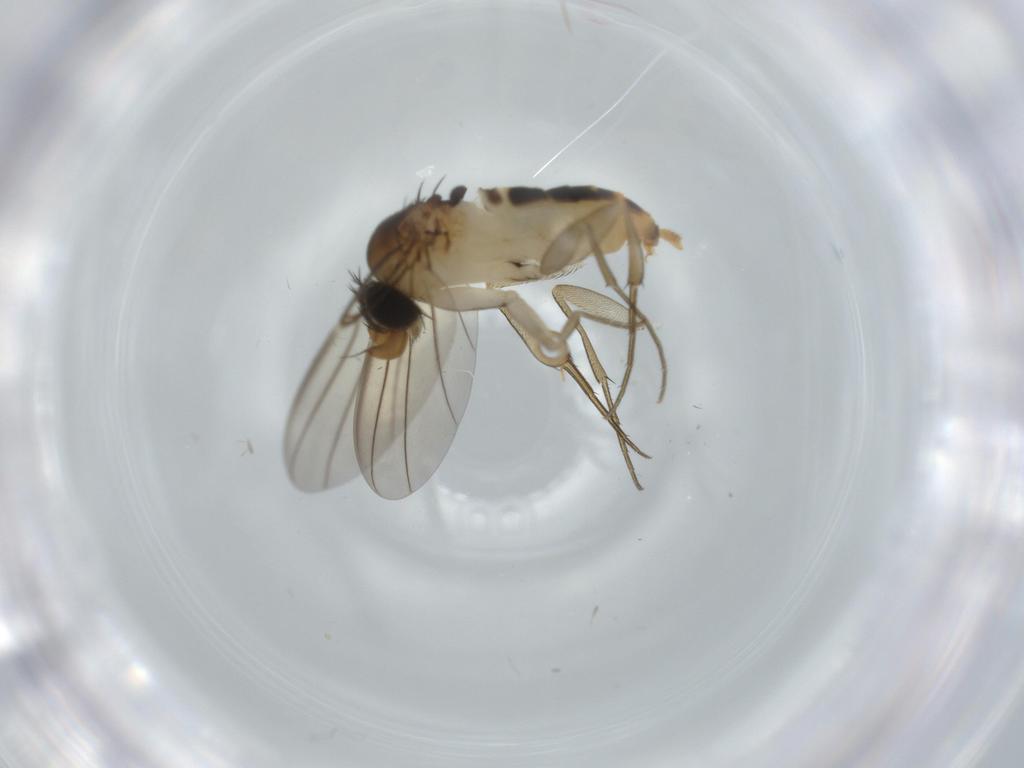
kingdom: Animalia
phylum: Arthropoda
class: Insecta
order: Diptera
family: Phoridae
